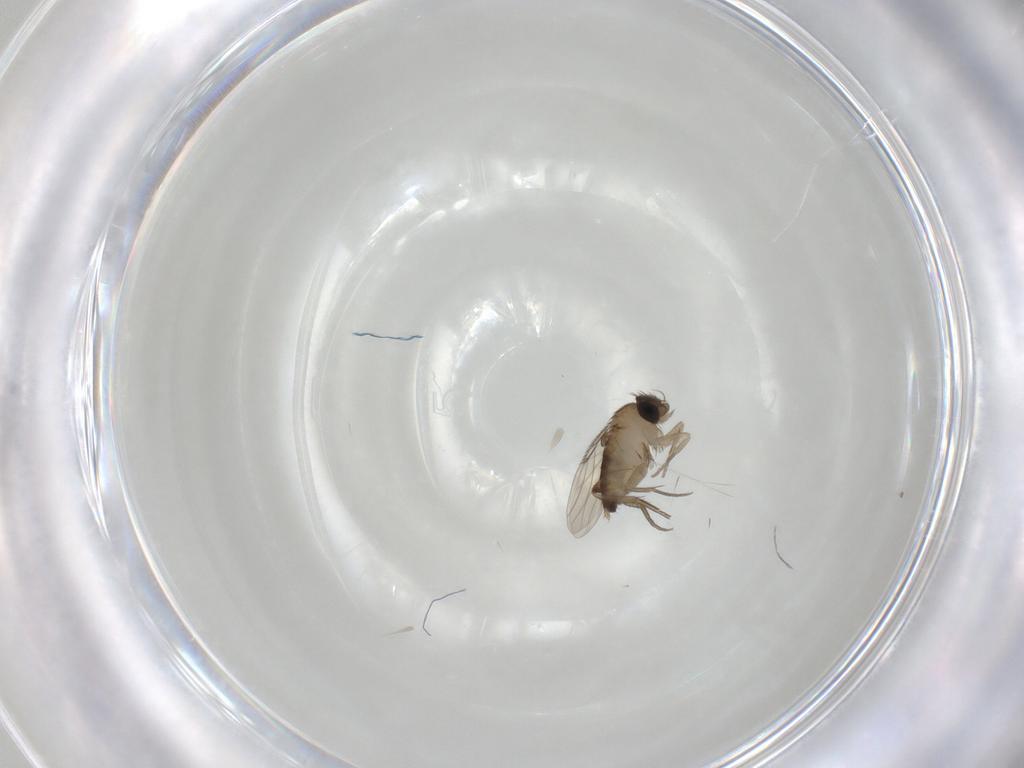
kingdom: Animalia
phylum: Arthropoda
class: Insecta
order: Diptera
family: Phoridae
